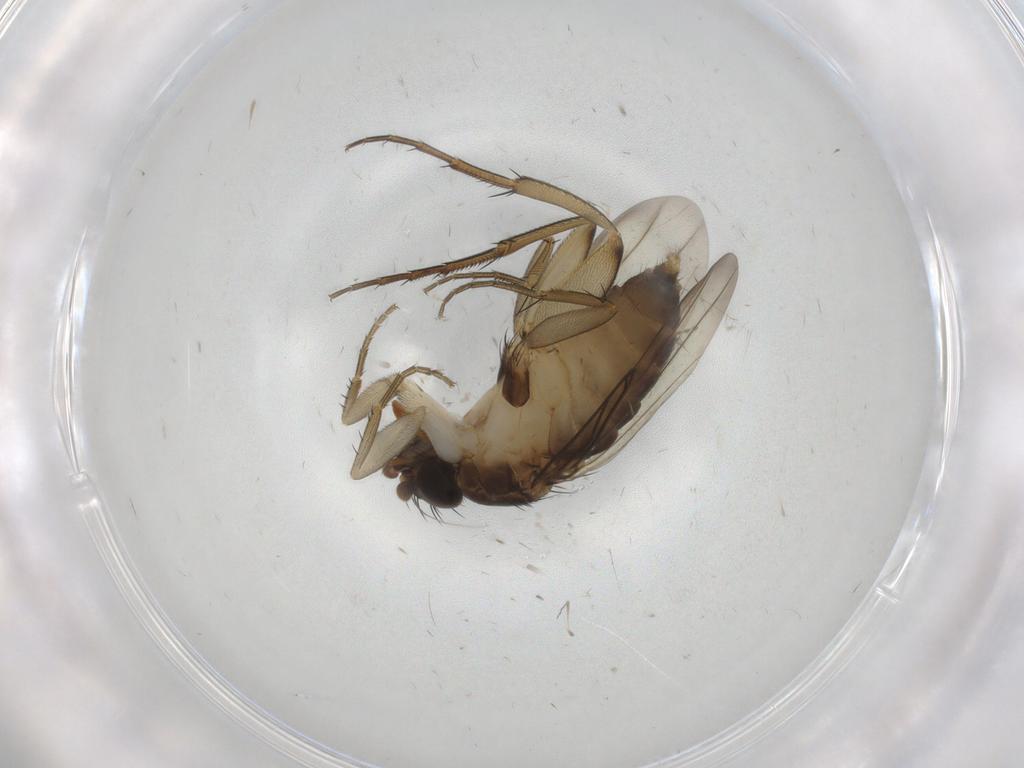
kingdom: Animalia
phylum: Arthropoda
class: Insecta
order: Diptera
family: Phoridae
